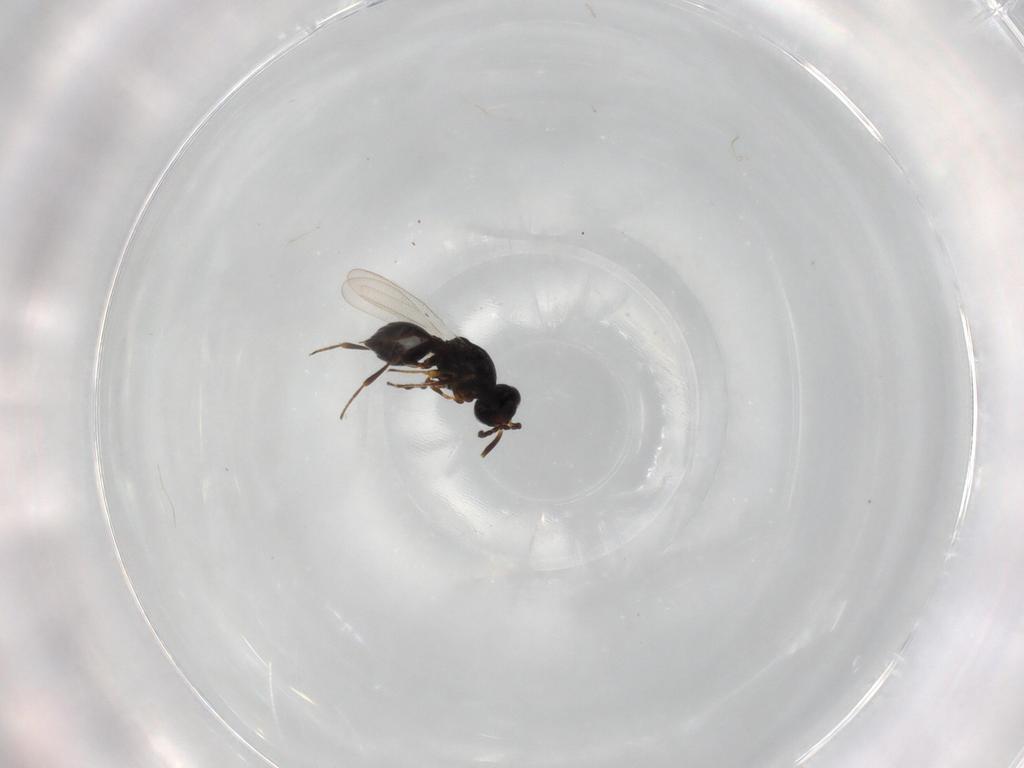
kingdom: Animalia
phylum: Arthropoda
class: Insecta
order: Hymenoptera
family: Platygastridae
